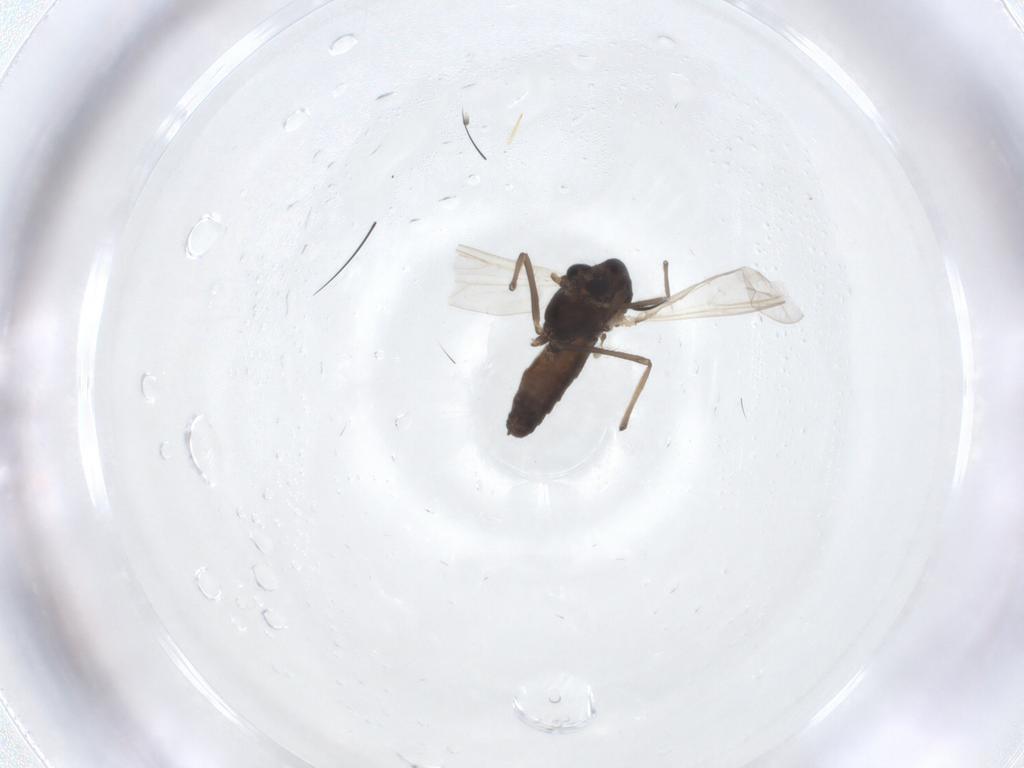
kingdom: Animalia
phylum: Arthropoda
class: Insecta
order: Diptera
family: Chironomidae
